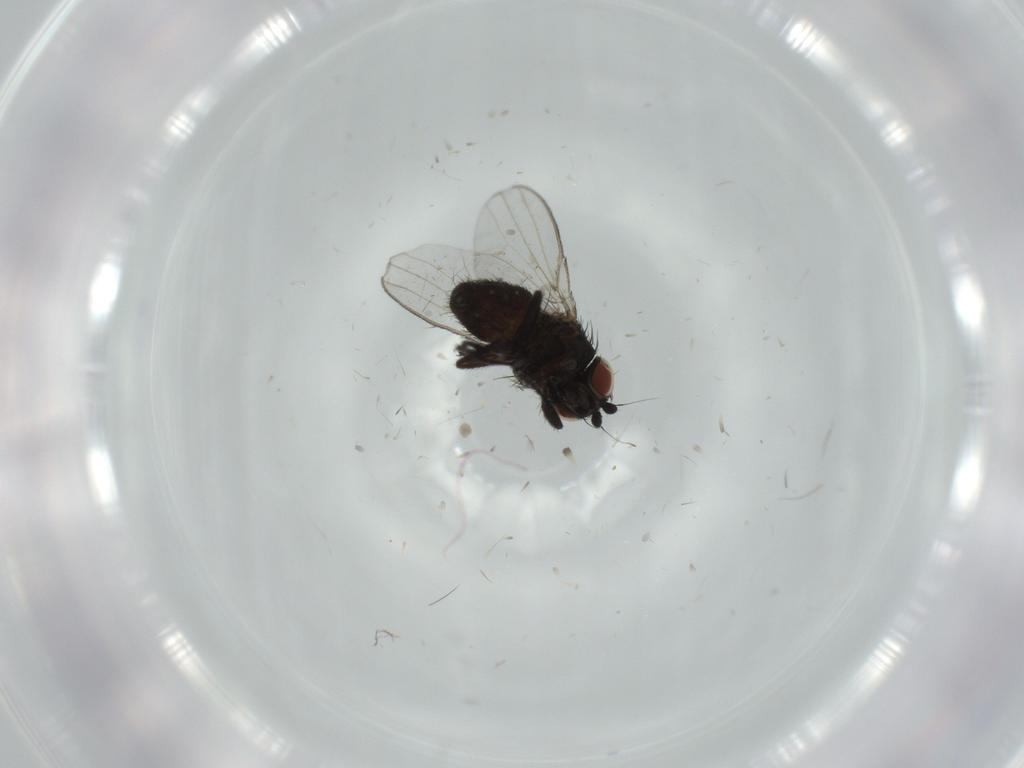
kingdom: Animalia
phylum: Arthropoda
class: Insecta
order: Diptera
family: Milichiidae
